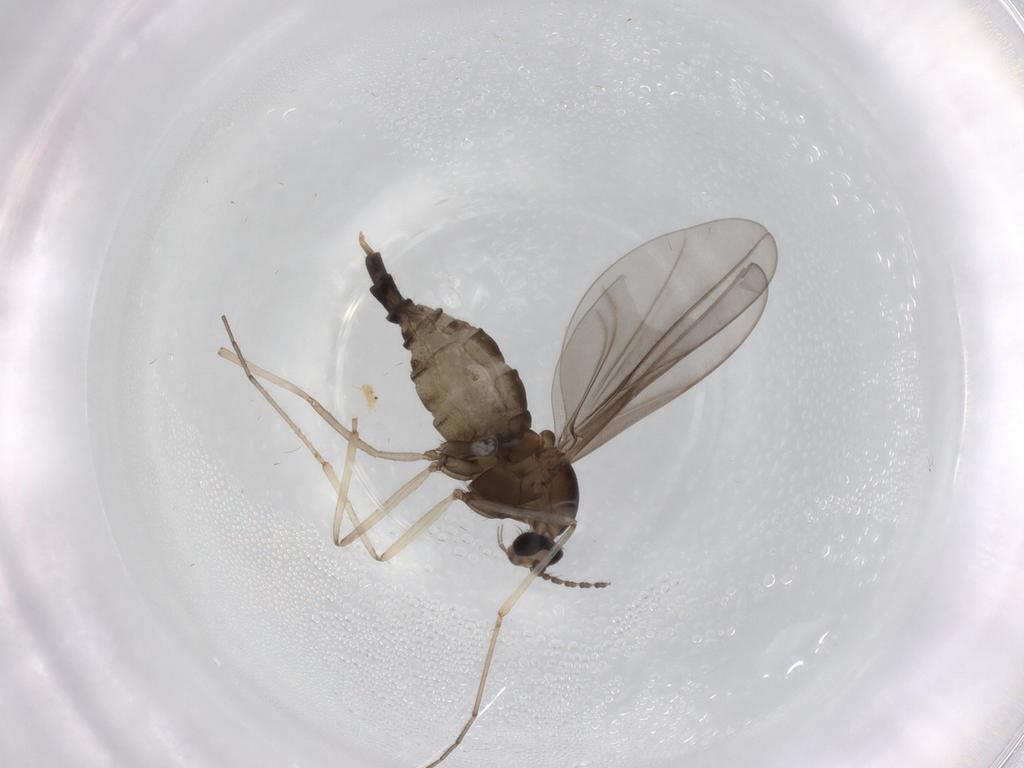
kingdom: Animalia
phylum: Arthropoda
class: Insecta
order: Diptera
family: Cecidomyiidae
